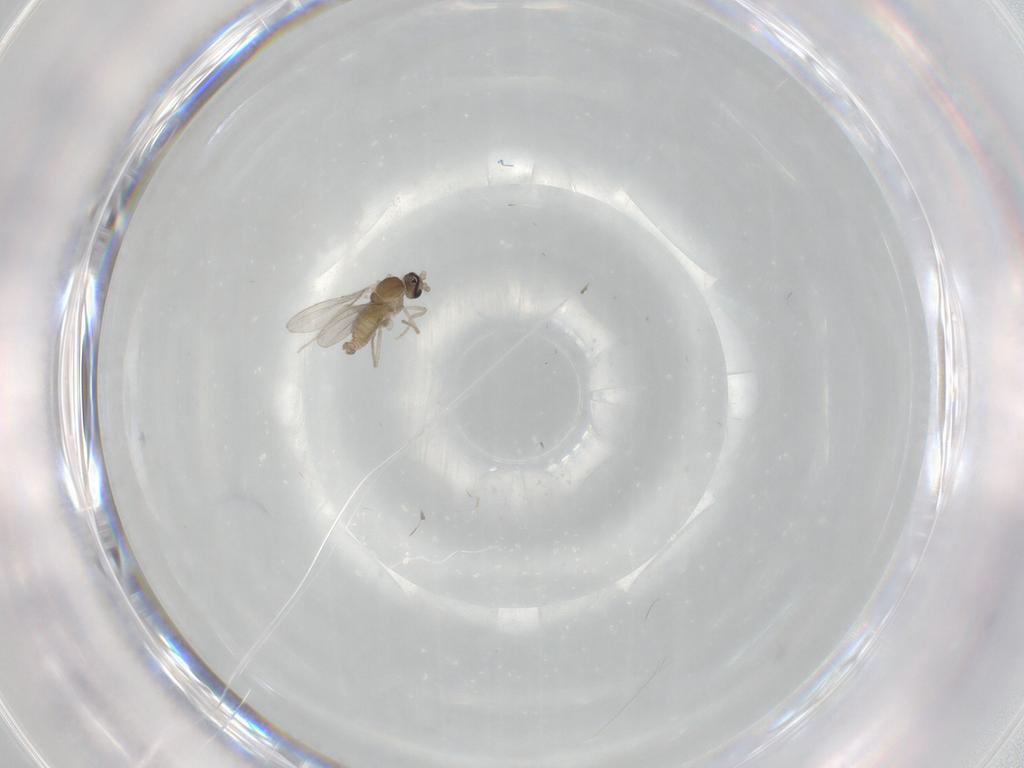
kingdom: Animalia
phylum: Arthropoda
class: Insecta
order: Diptera
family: Cecidomyiidae
